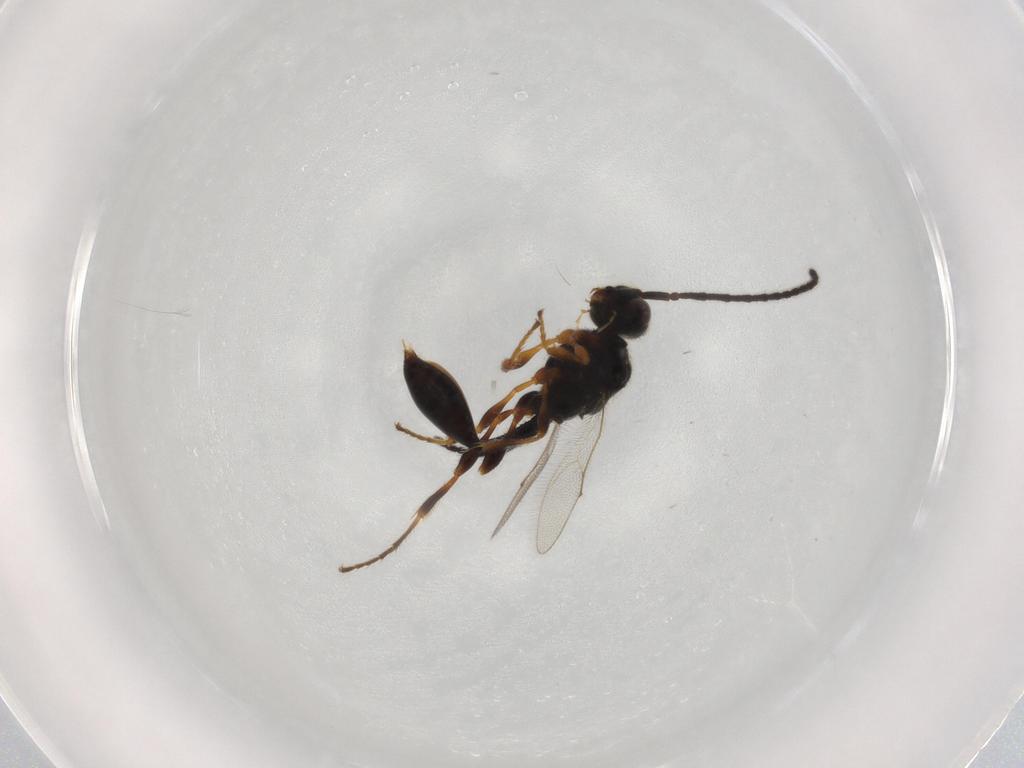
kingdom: Animalia
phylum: Arthropoda
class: Insecta
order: Hymenoptera
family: Diapriidae
